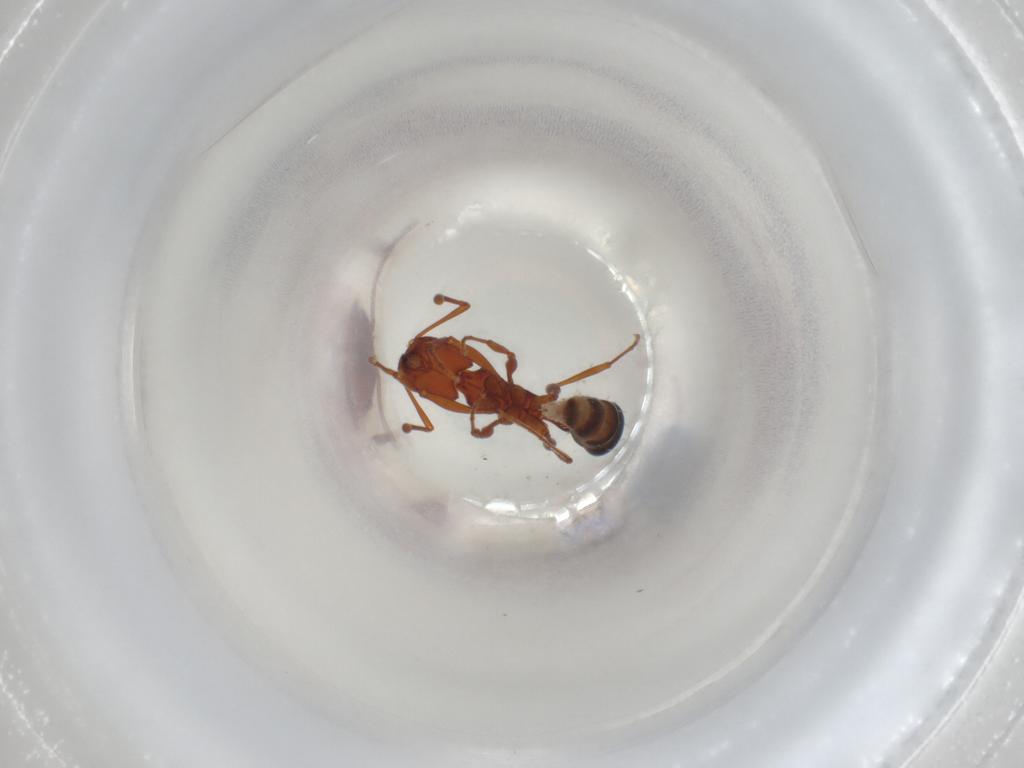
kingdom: Animalia
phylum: Arthropoda
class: Insecta
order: Hymenoptera
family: Formicidae
